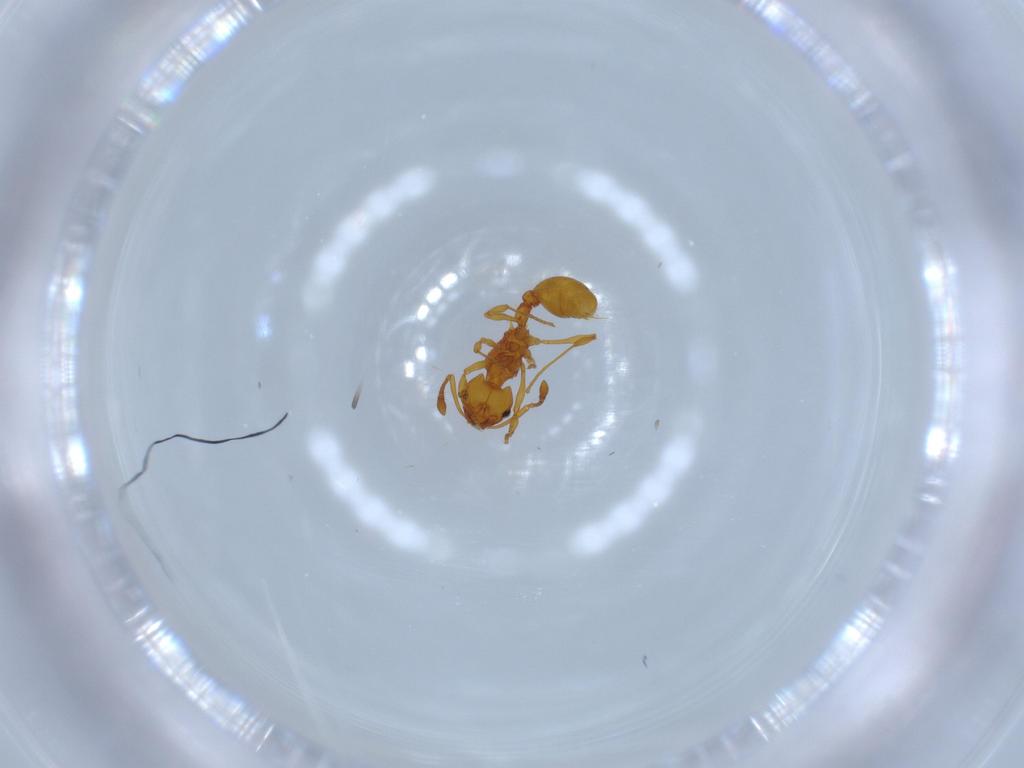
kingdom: Animalia
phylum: Arthropoda
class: Insecta
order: Hymenoptera
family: Formicidae
